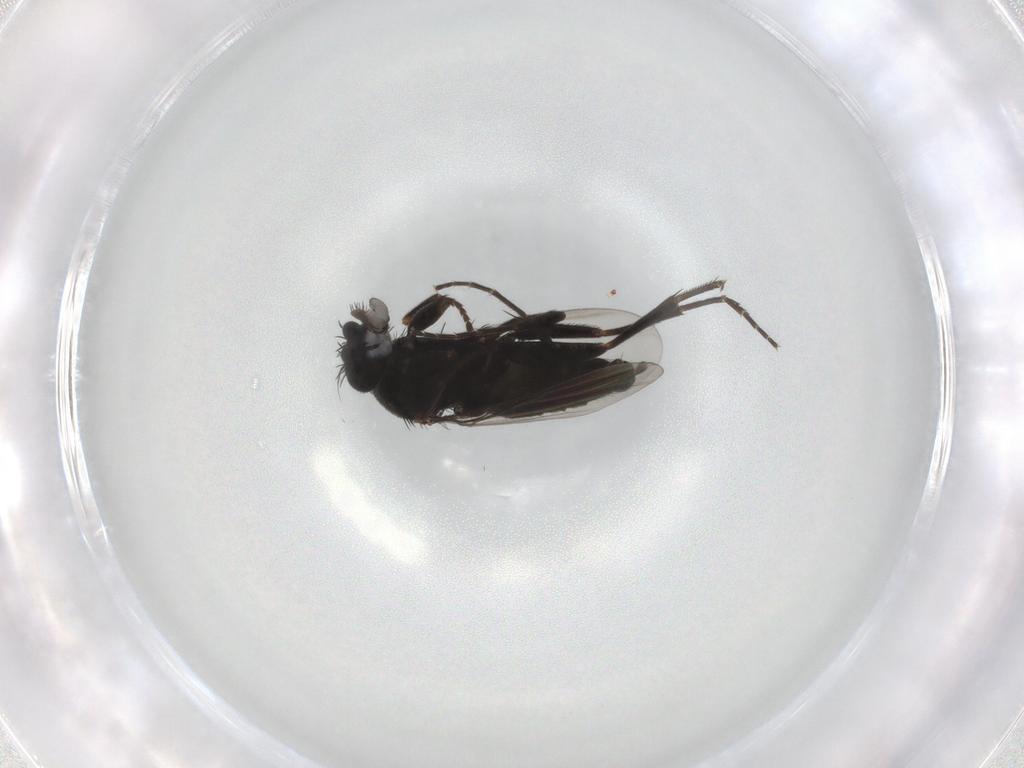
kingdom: Animalia
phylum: Arthropoda
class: Insecta
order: Diptera
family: Phoridae
